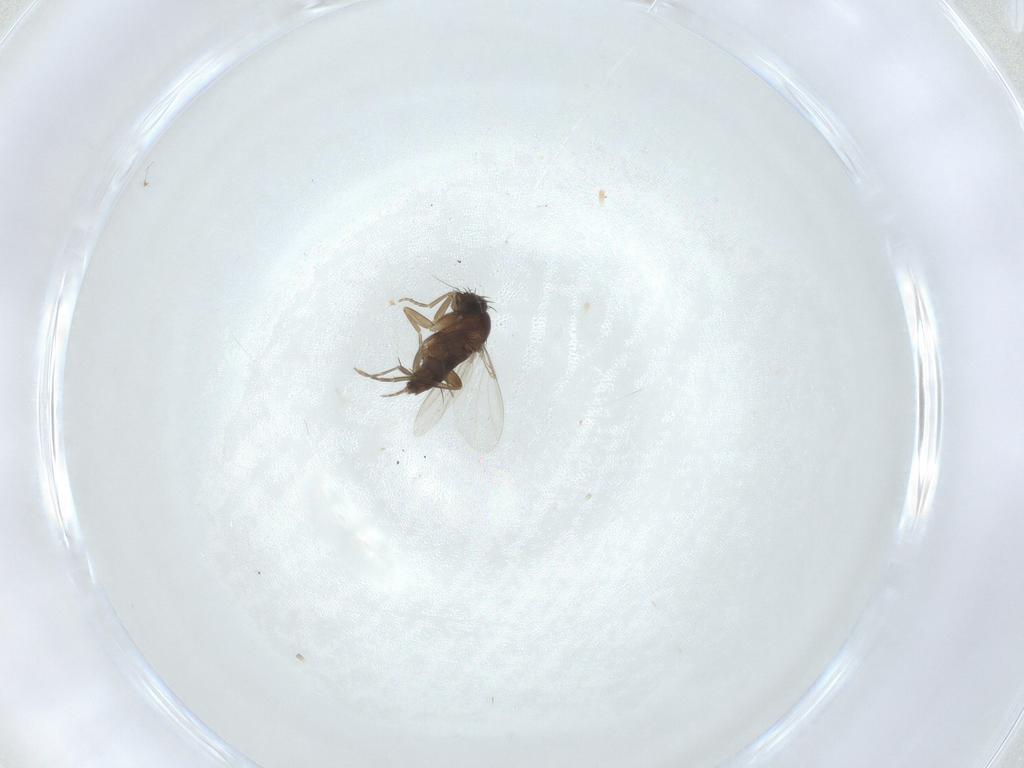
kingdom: Animalia
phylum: Arthropoda
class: Insecta
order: Diptera
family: Phoridae
